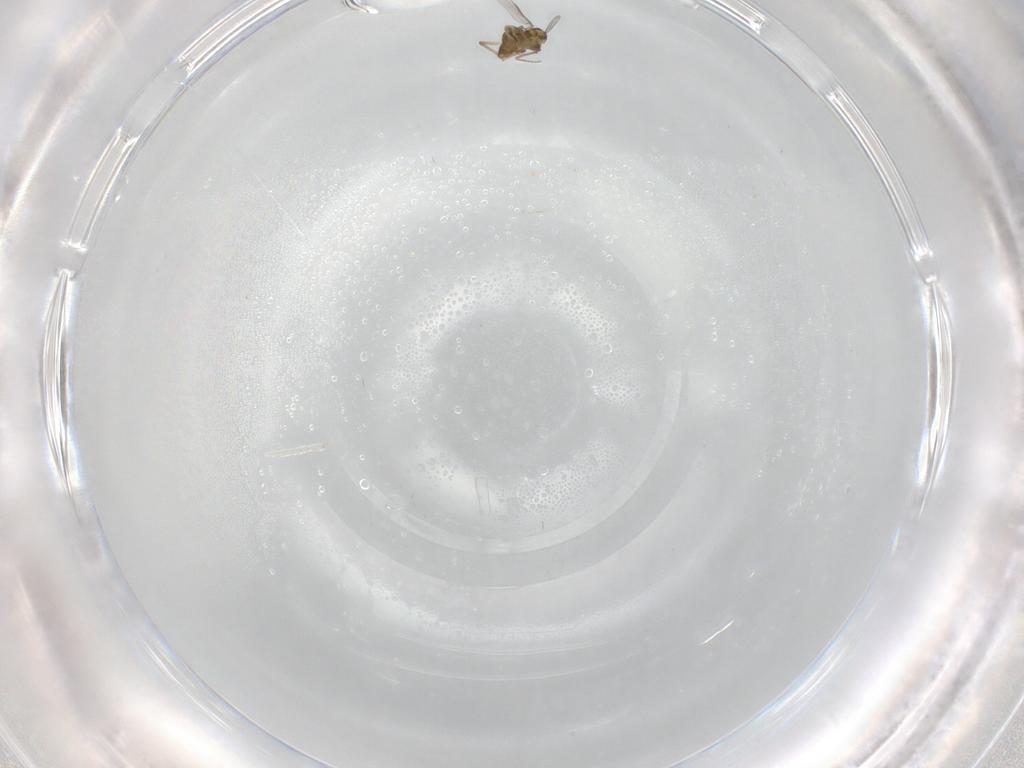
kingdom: Animalia
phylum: Arthropoda
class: Insecta
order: Diptera
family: Chironomidae
